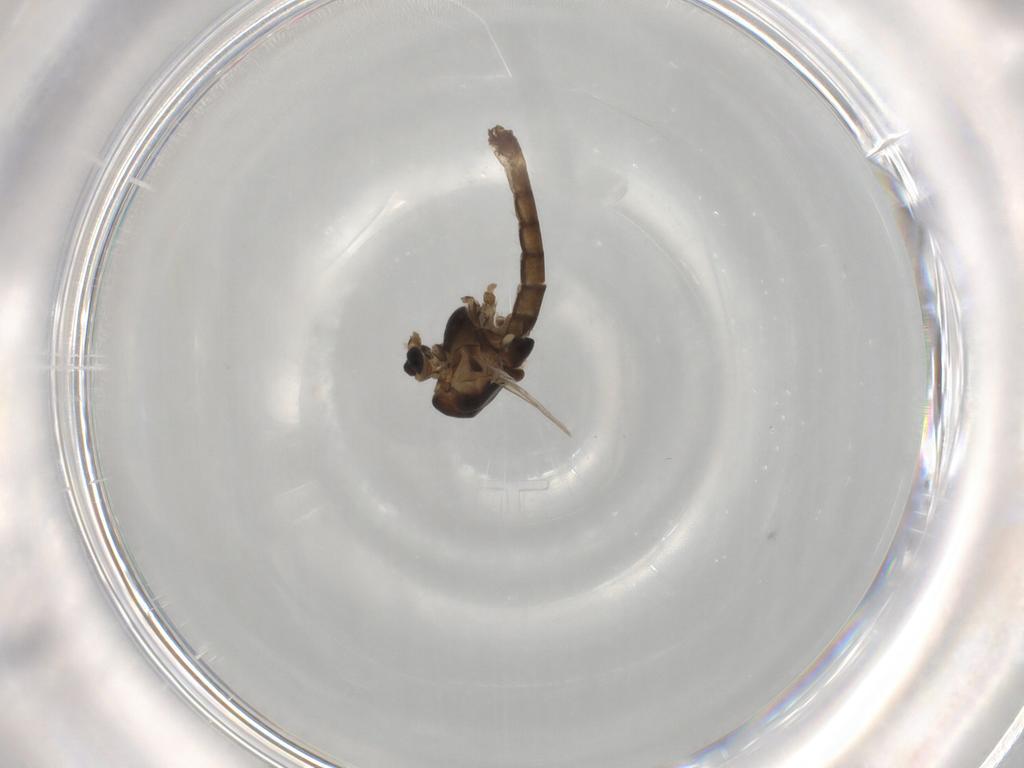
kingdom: Animalia
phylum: Arthropoda
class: Insecta
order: Diptera
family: Chironomidae
